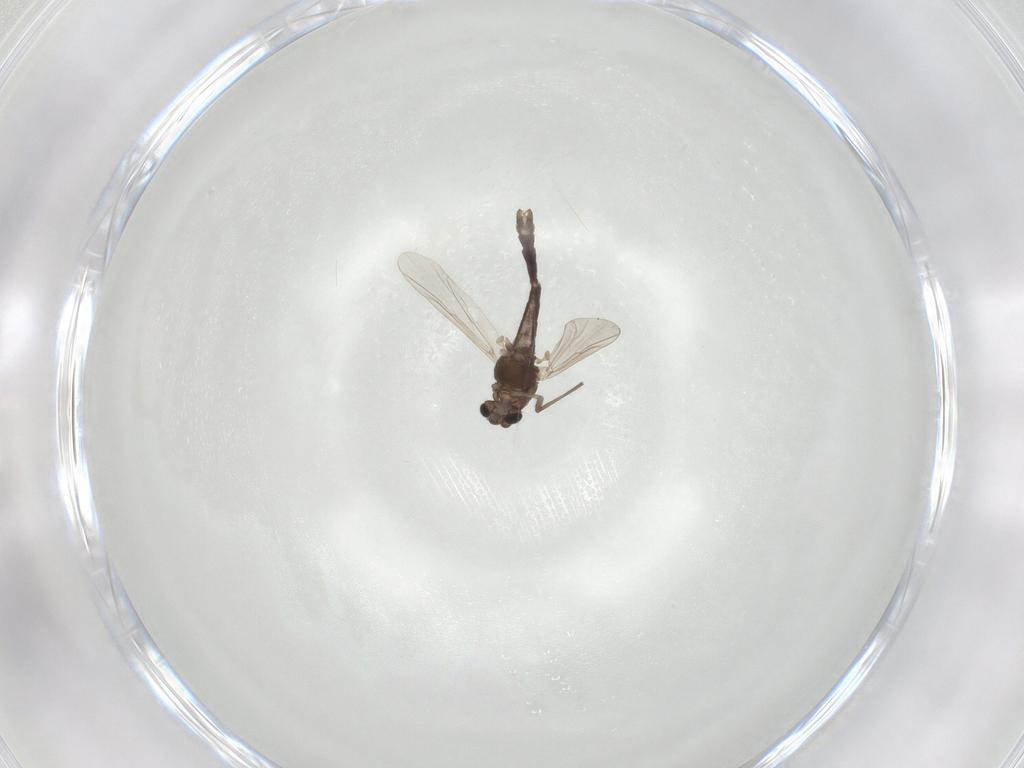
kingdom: Animalia
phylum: Arthropoda
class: Insecta
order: Diptera
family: Chironomidae
